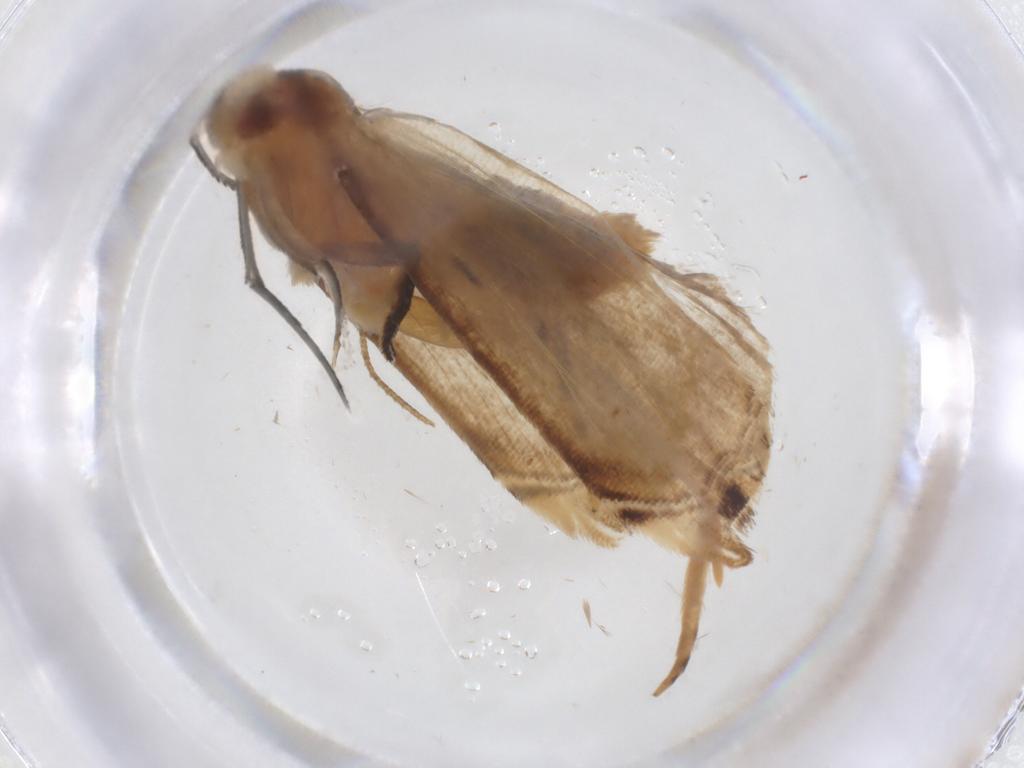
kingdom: Animalia
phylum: Arthropoda
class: Insecta
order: Lepidoptera
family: Erebidae
